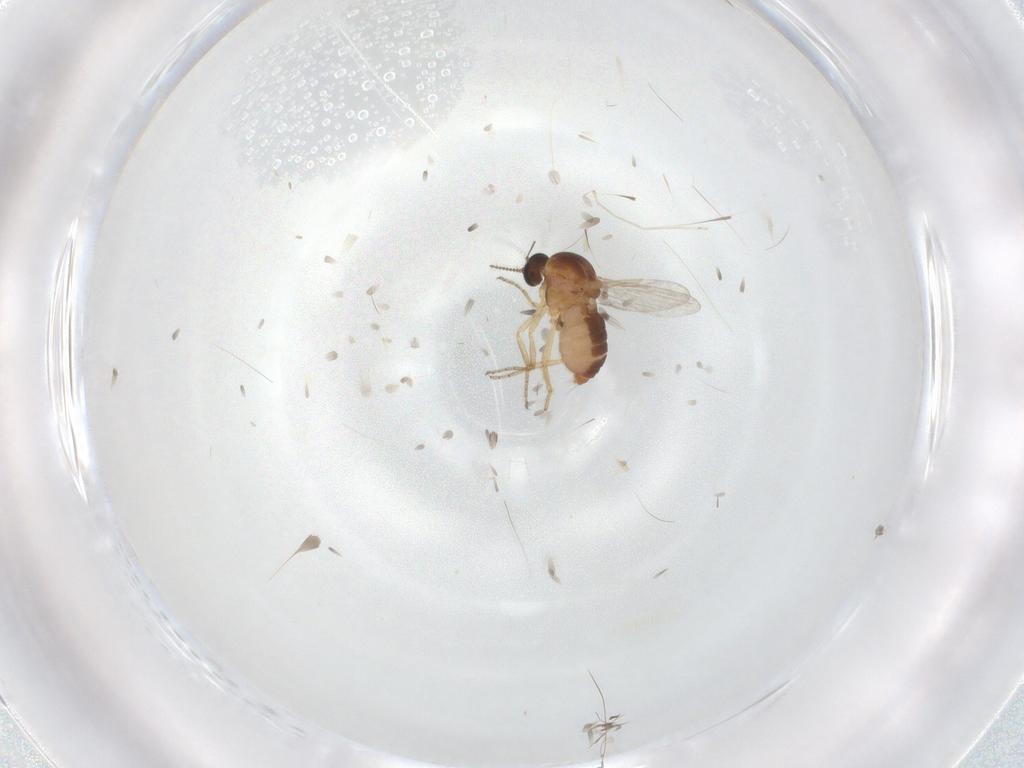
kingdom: Animalia
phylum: Arthropoda
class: Insecta
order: Diptera
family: Ceratopogonidae
